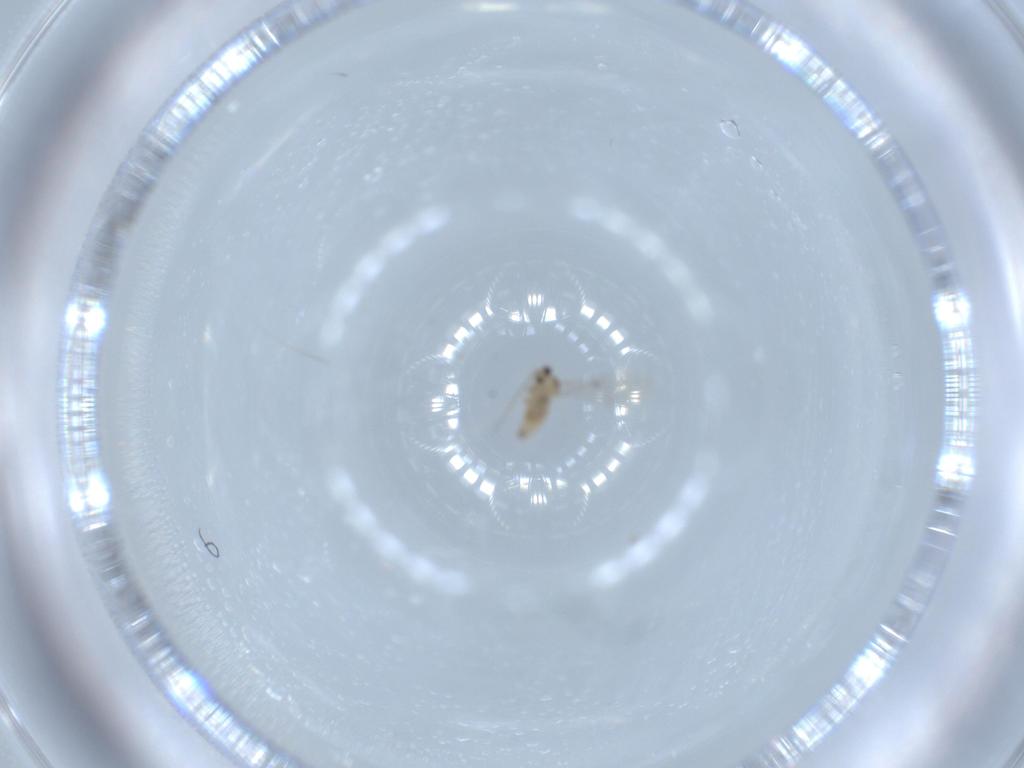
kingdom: Animalia
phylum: Arthropoda
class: Insecta
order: Diptera
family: Cecidomyiidae
